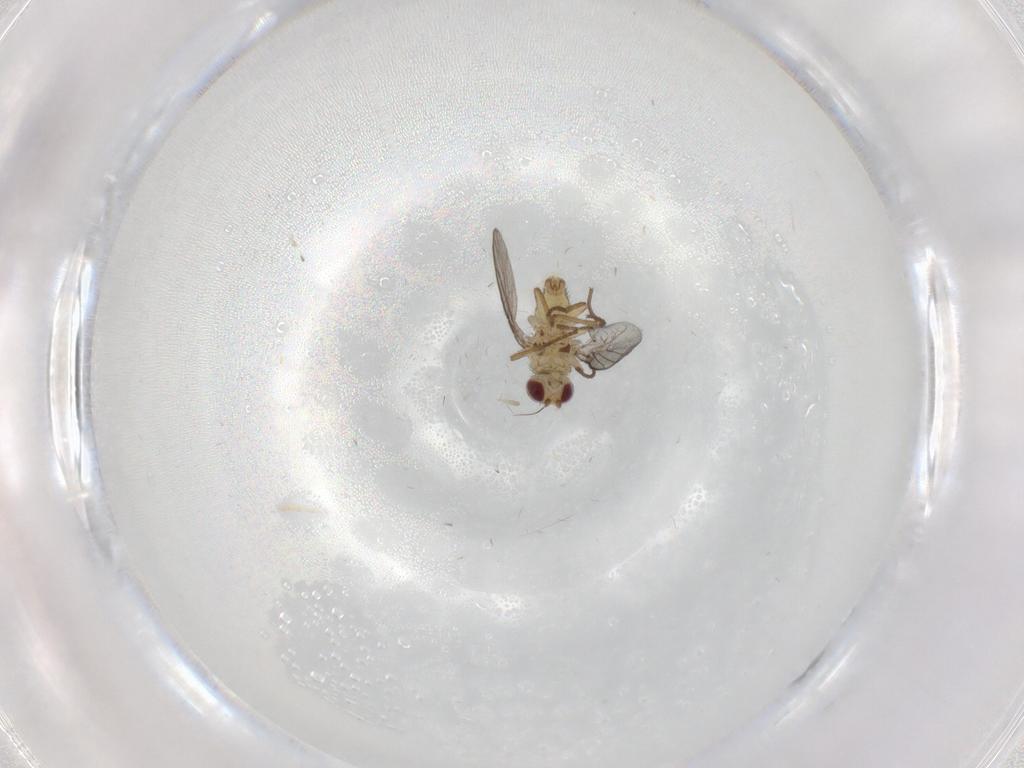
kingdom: Animalia
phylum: Arthropoda
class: Insecta
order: Diptera
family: Agromyzidae
